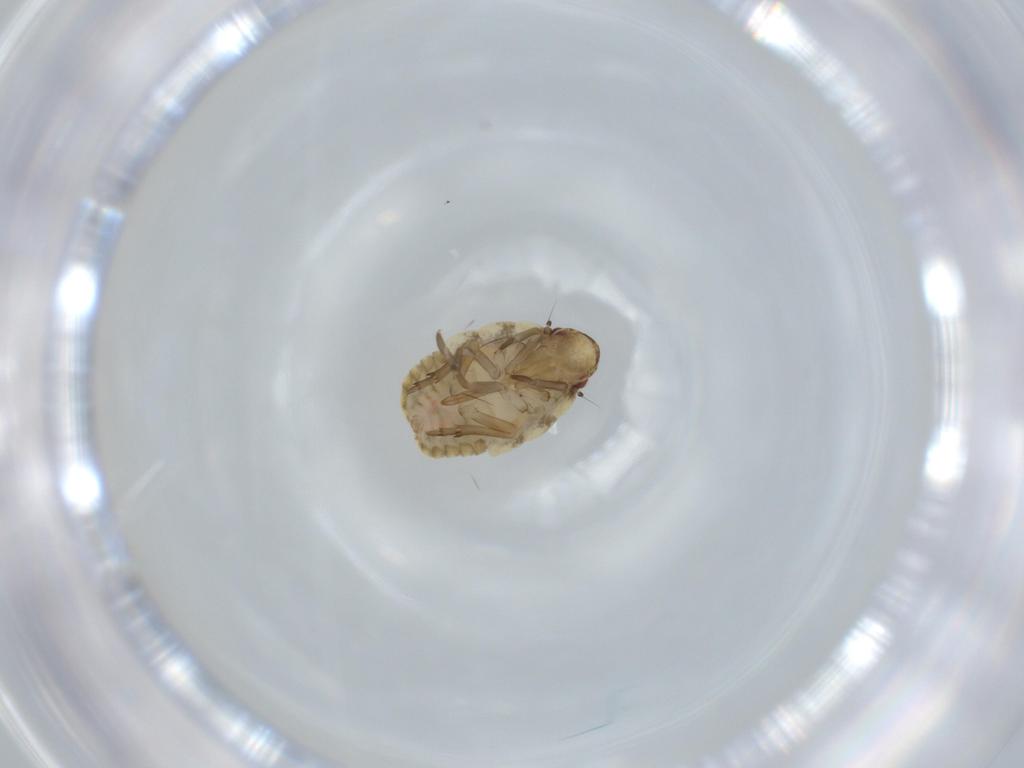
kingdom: Animalia
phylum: Arthropoda
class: Insecta
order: Hemiptera
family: Flatidae
